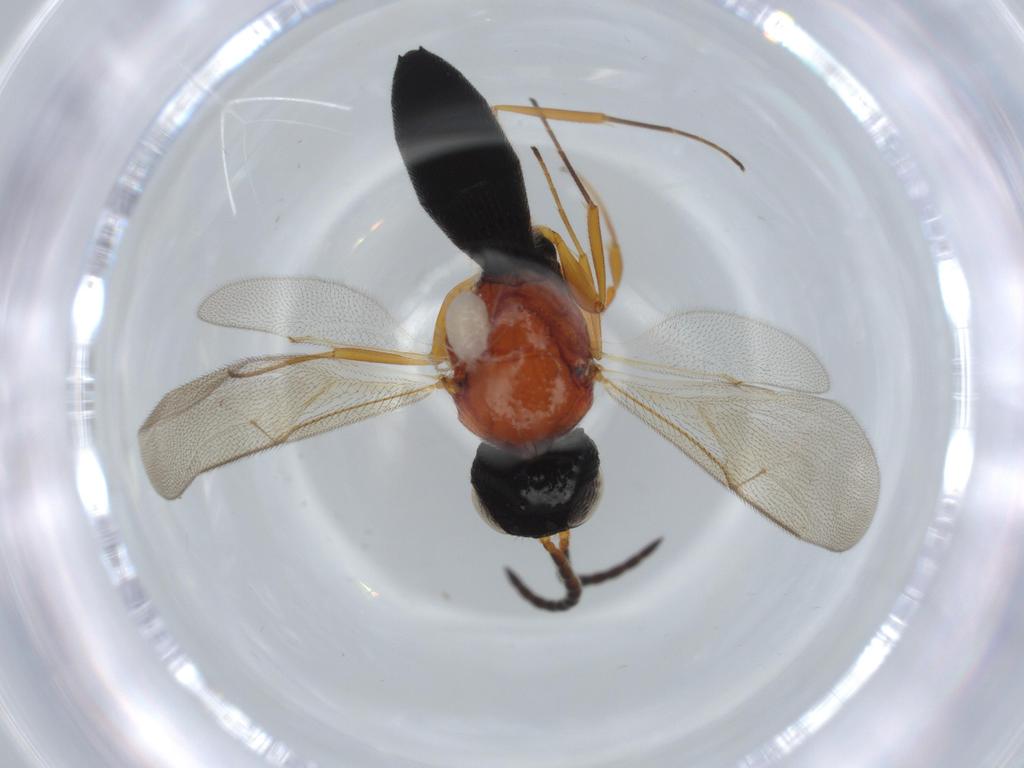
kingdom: Animalia
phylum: Arthropoda
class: Insecta
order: Hymenoptera
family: Scelionidae
